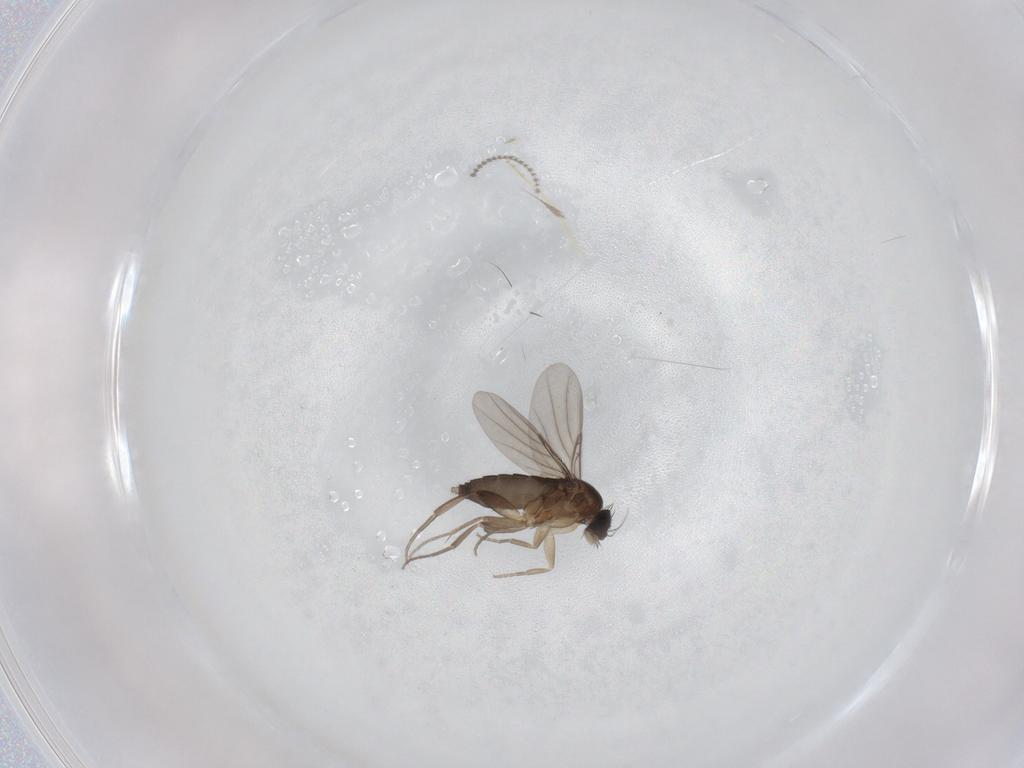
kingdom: Animalia
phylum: Arthropoda
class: Insecta
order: Diptera
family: Phoridae
